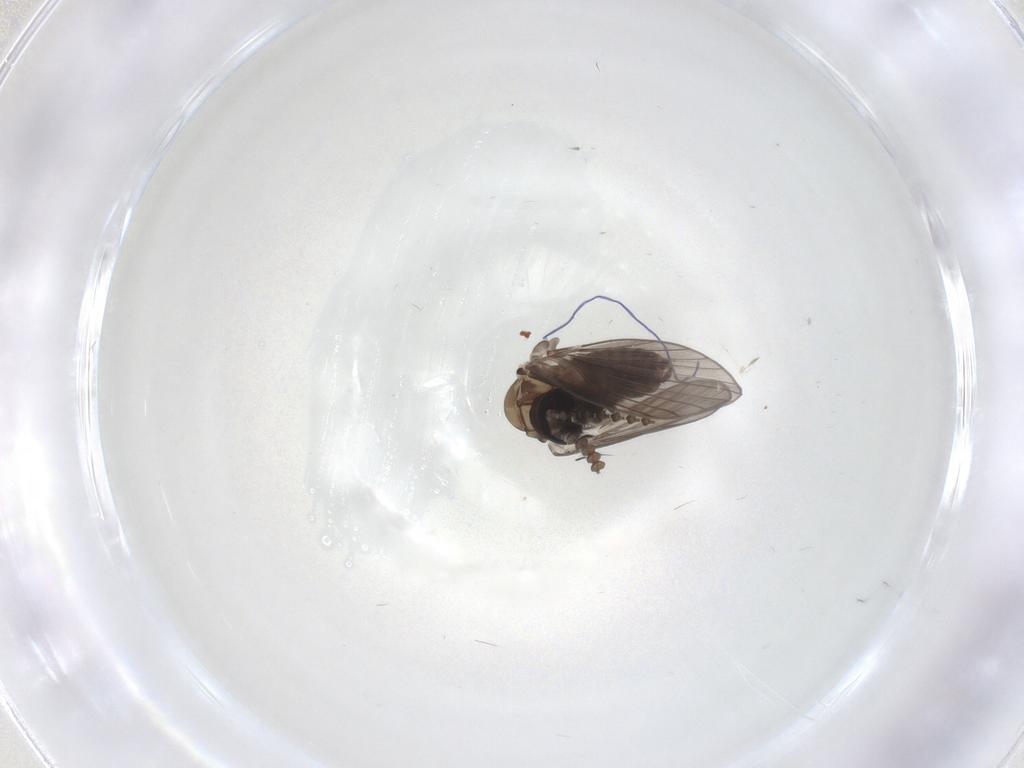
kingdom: Animalia
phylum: Arthropoda
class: Insecta
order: Diptera
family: Psychodidae
